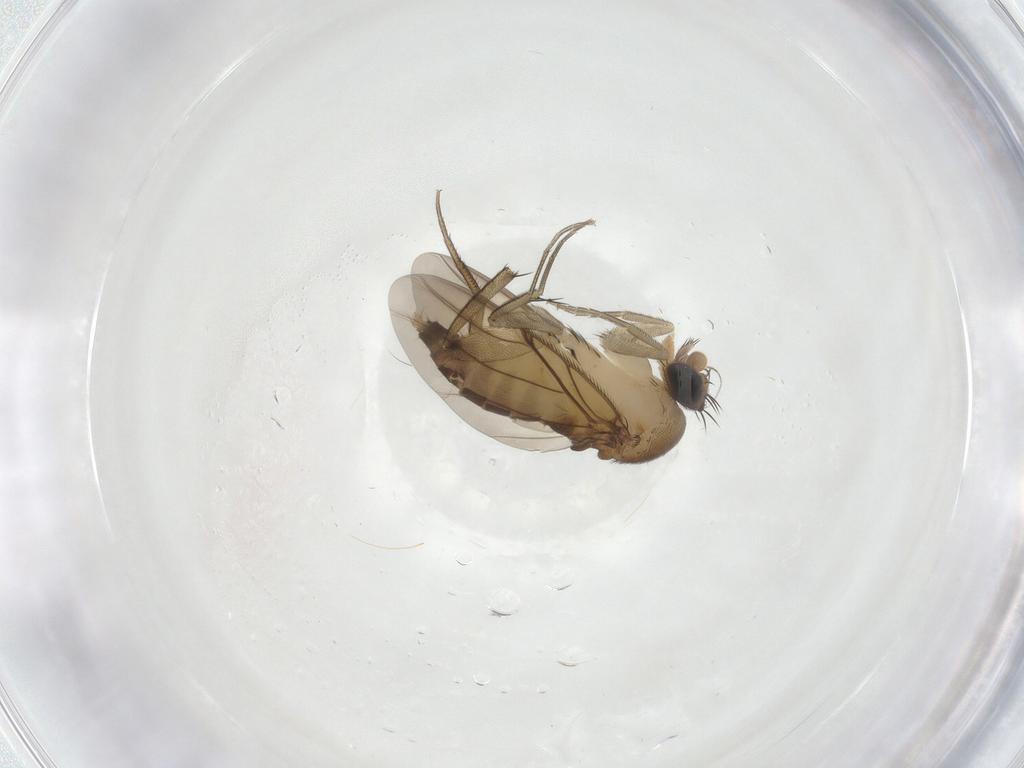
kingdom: Animalia
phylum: Arthropoda
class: Insecta
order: Diptera
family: Phoridae
